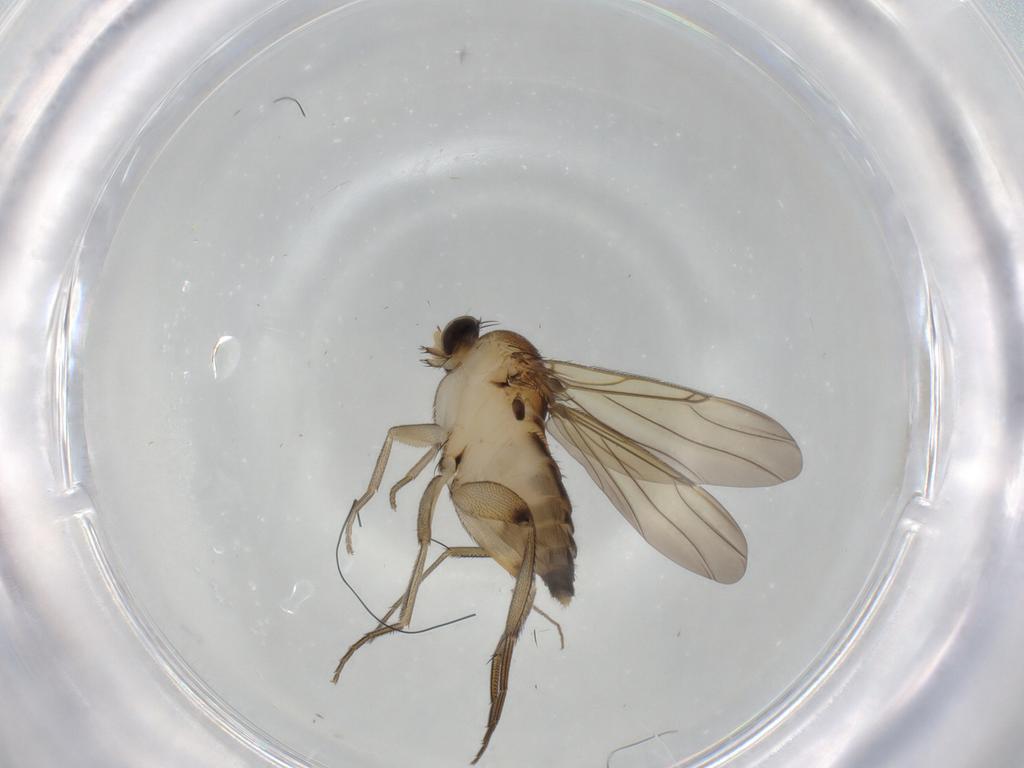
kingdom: Animalia
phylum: Arthropoda
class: Insecta
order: Diptera
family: Phoridae
